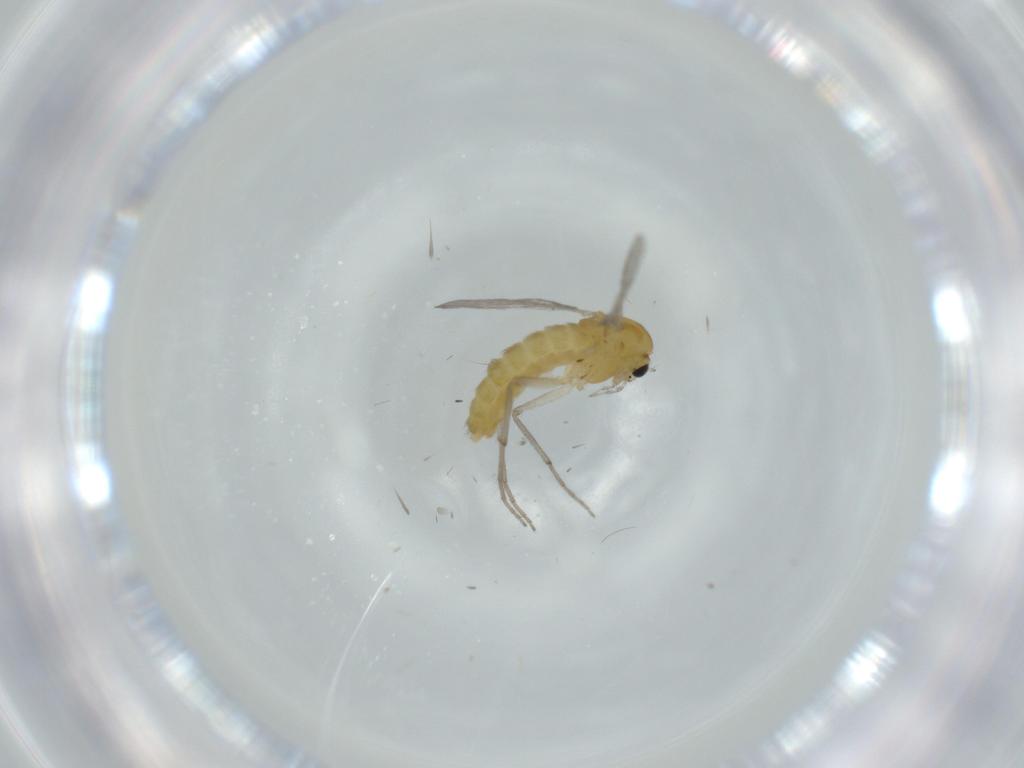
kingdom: Animalia
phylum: Arthropoda
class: Insecta
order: Diptera
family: Chironomidae
